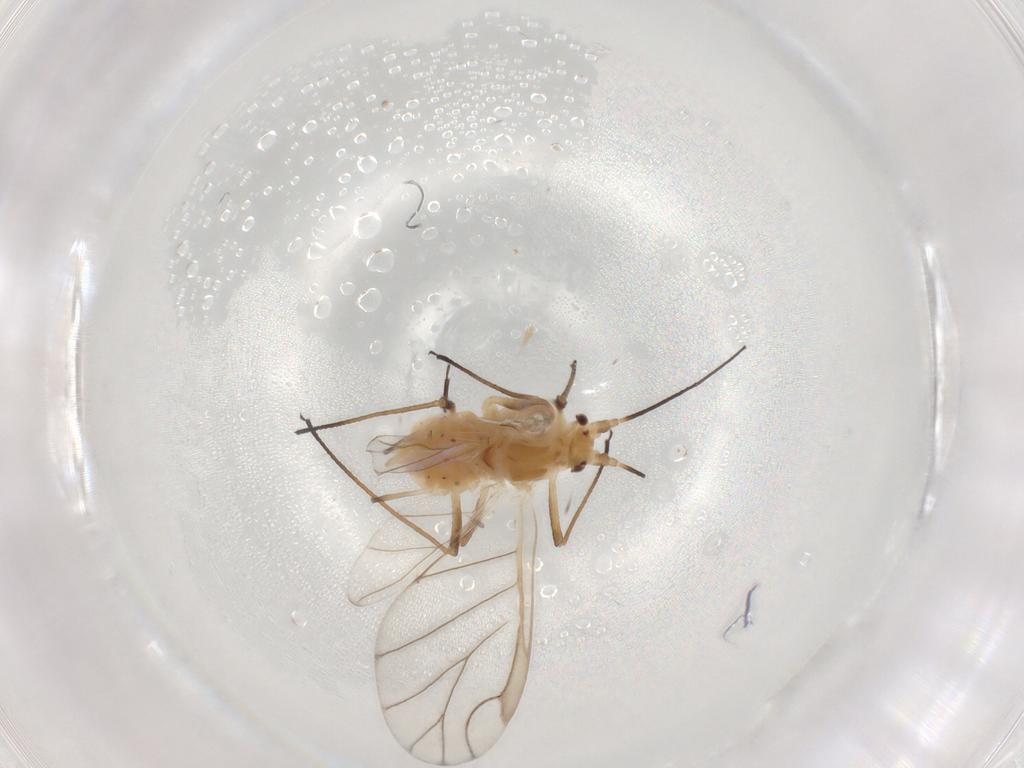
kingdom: Animalia
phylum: Arthropoda
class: Insecta
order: Hemiptera
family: Aphididae
